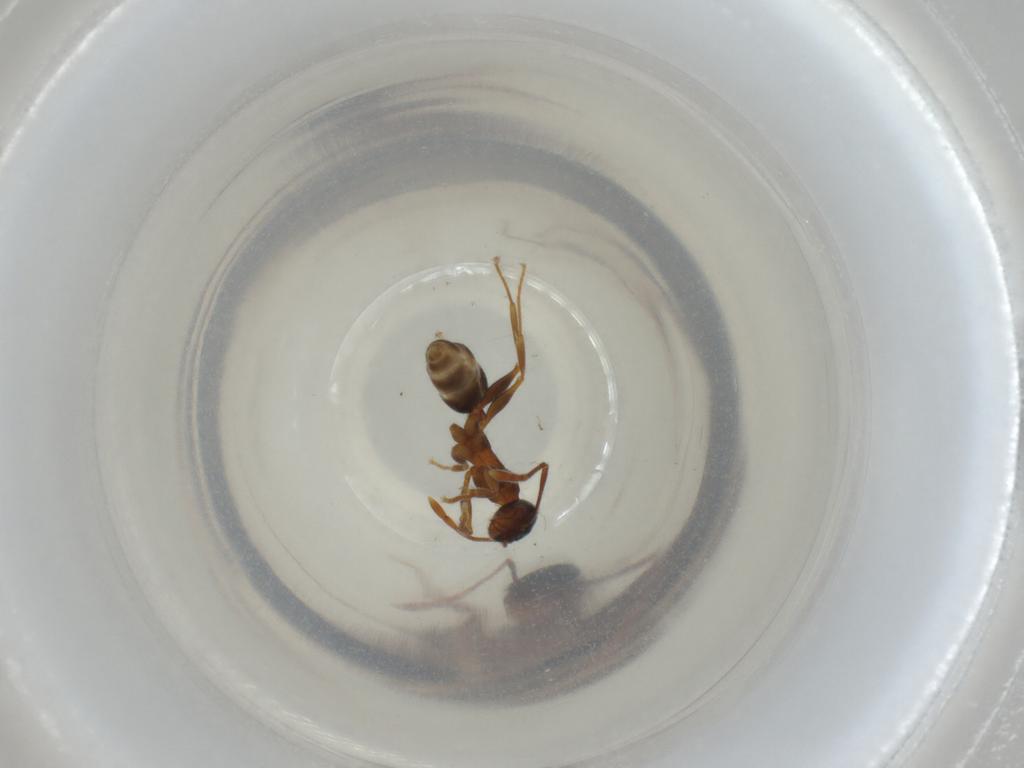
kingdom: Animalia
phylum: Arthropoda
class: Insecta
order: Hymenoptera
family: Formicidae
